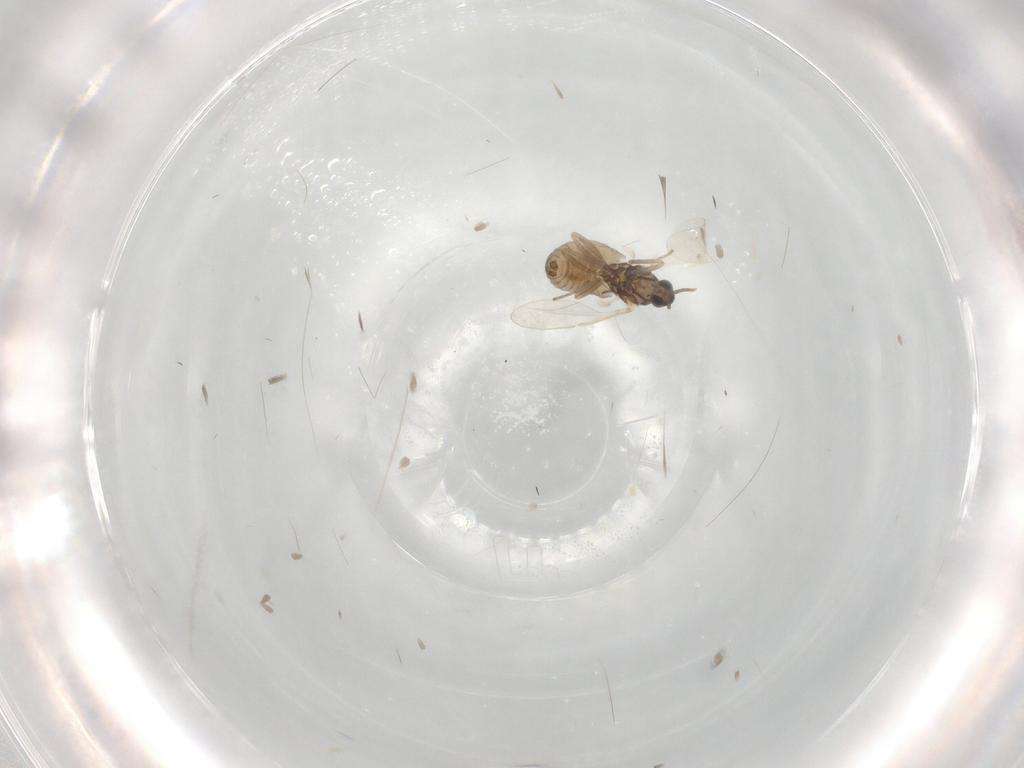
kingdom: Animalia
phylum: Arthropoda
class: Insecta
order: Diptera
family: Cecidomyiidae
